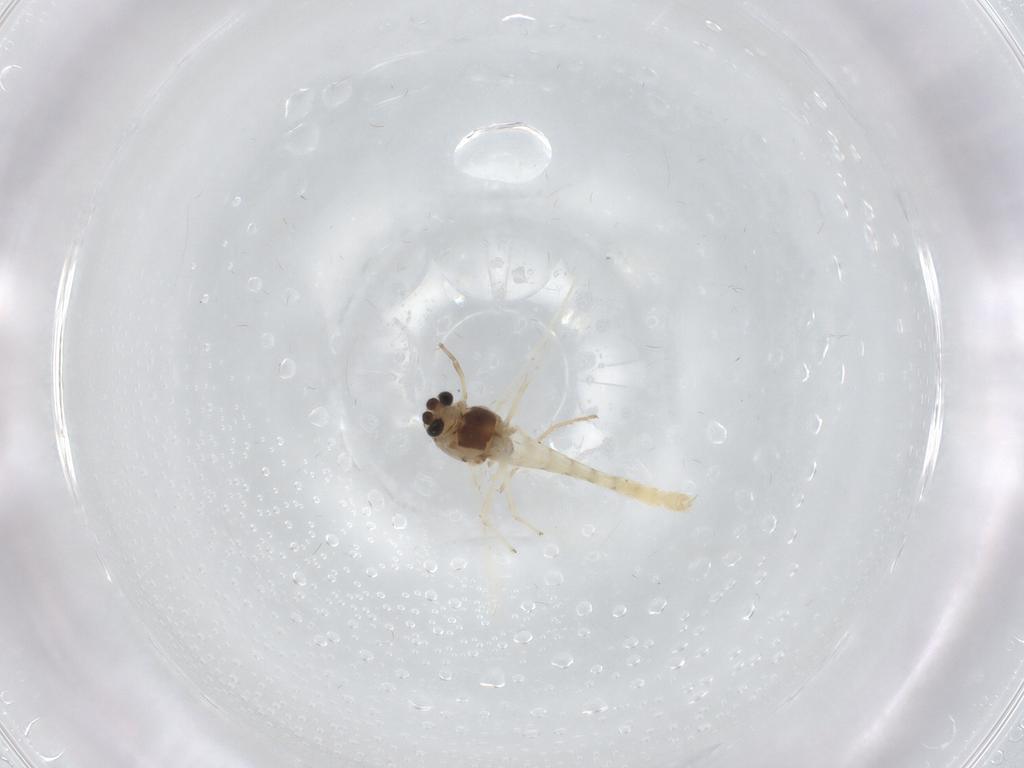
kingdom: Animalia
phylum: Arthropoda
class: Insecta
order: Diptera
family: Chironomidae
